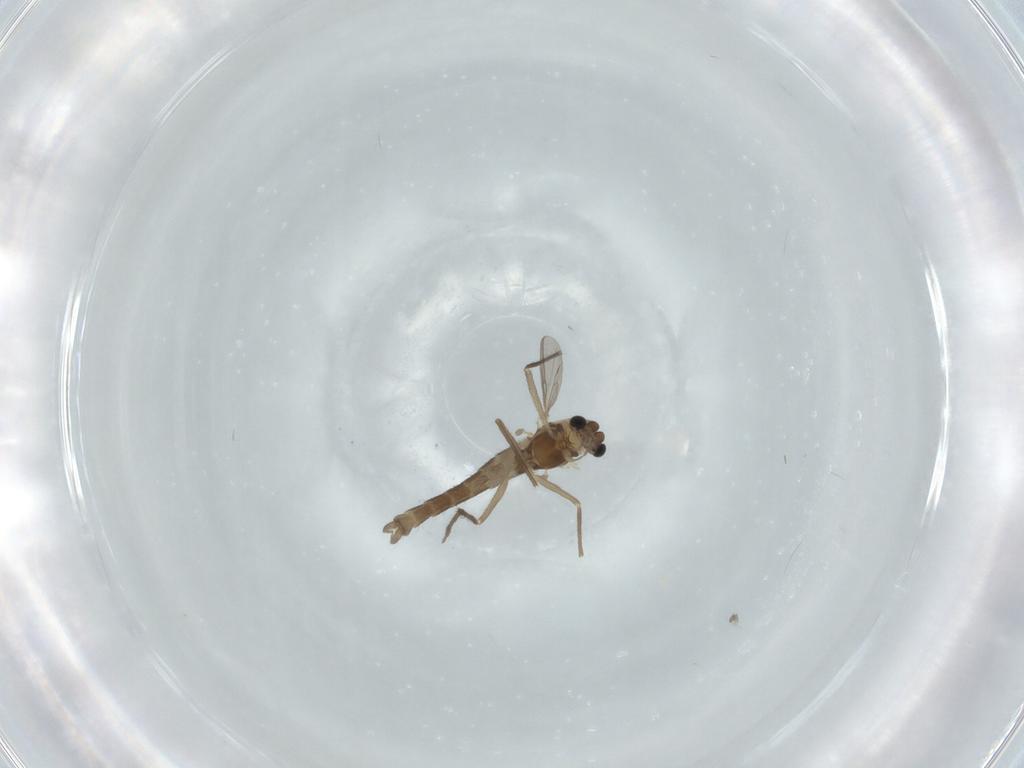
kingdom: Animalia
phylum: Arthropoda
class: Insecta
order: Diptera
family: Chironomidae
